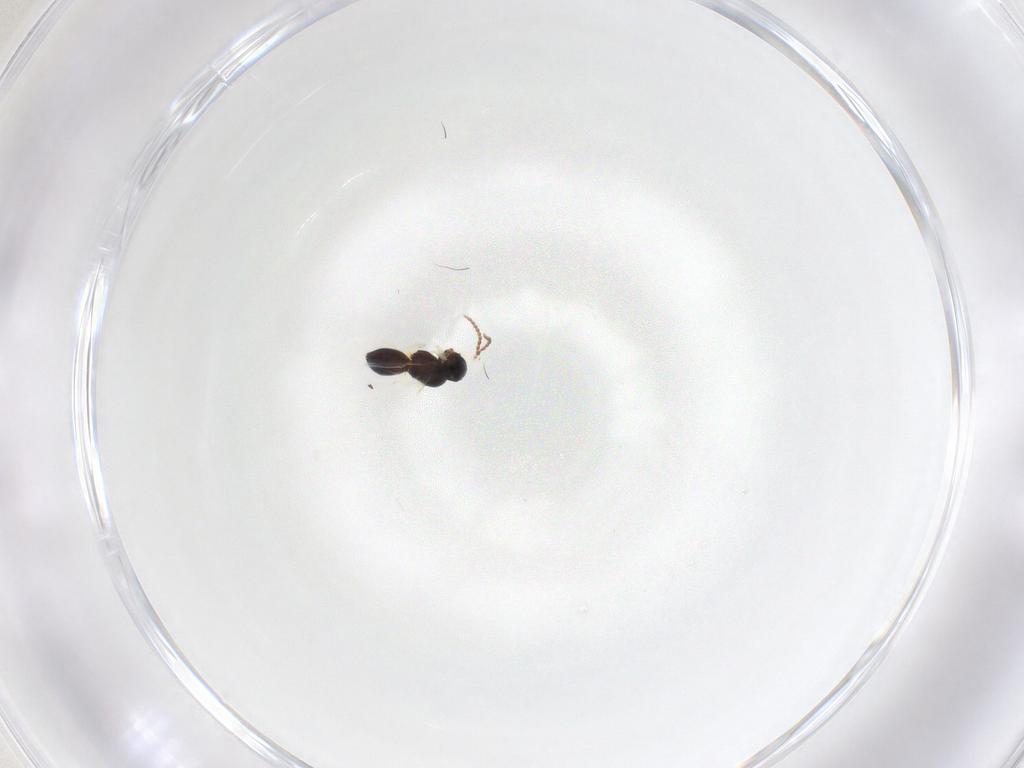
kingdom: Animalia
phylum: Arthropoda
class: Insecta
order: Hymenoptera
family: Scelionidae
